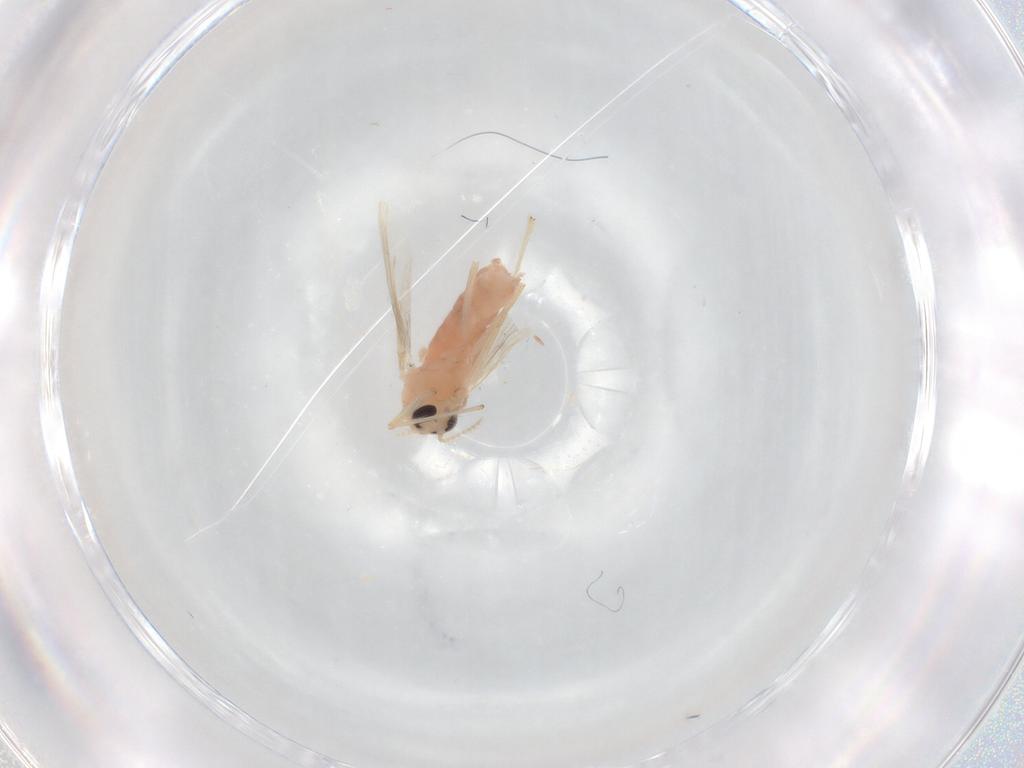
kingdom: Animalia
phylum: Arthropoda
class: Insecta
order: Diptera
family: Chironomidae
